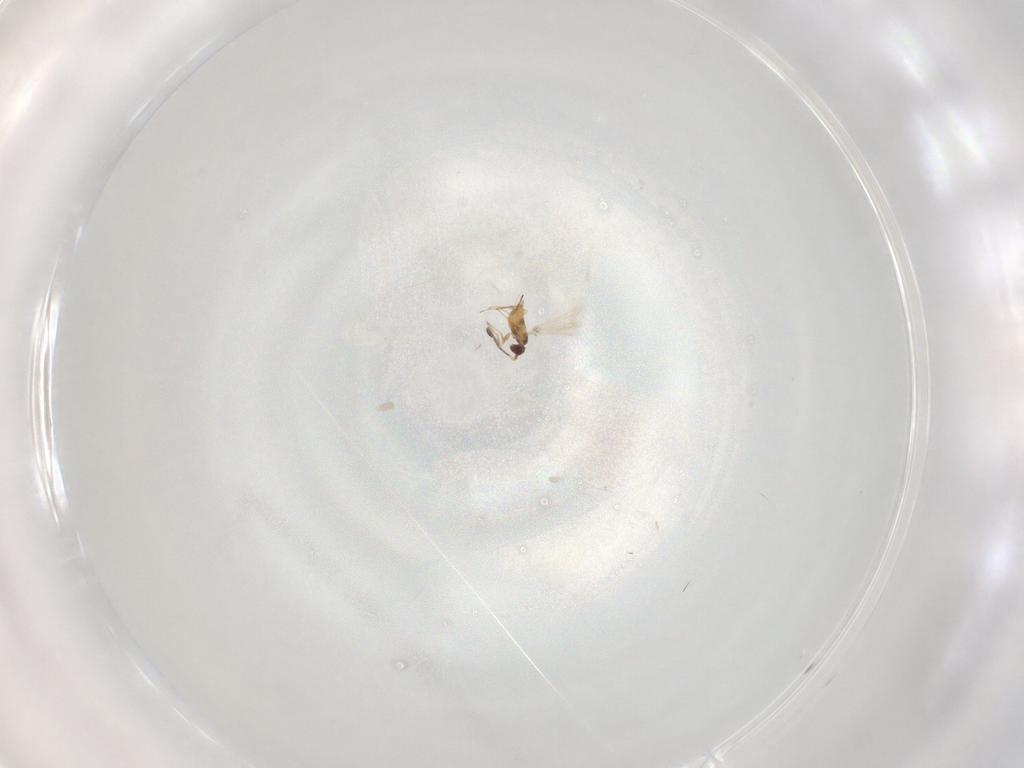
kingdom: Animalia
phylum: Arthropoda
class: Insecta
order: Hymenoptera
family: Mymaridae
